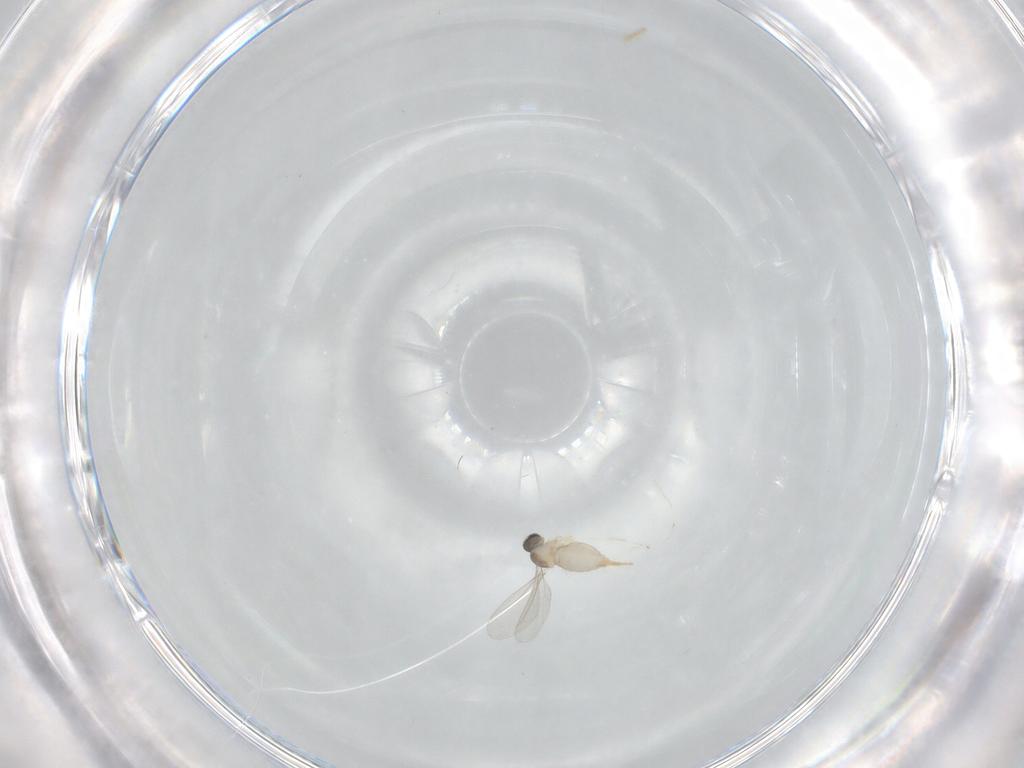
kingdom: Animalia
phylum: Arthropoda
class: Insecta
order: Diptera
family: Cecidomyiidae
